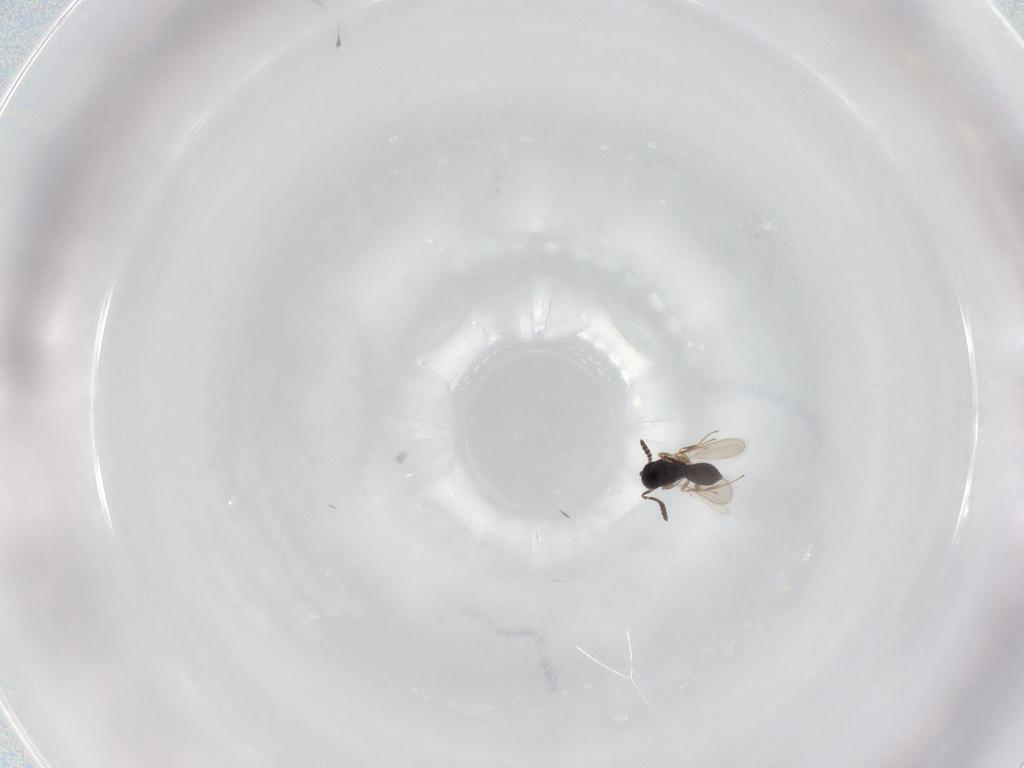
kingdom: Animalia
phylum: Arthropoda
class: Insecta
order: Hymenoptera
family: Scelionidae
